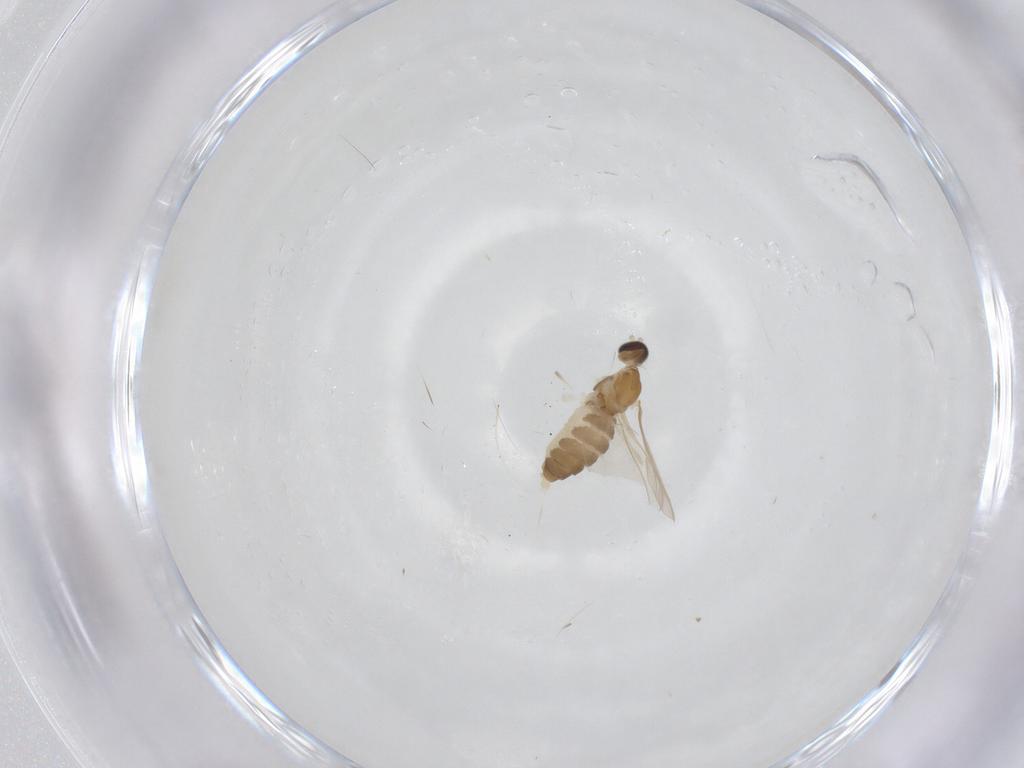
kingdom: Animalia
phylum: Arthropoda
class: Insecta
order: Diptera
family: Cecidomyiidae
